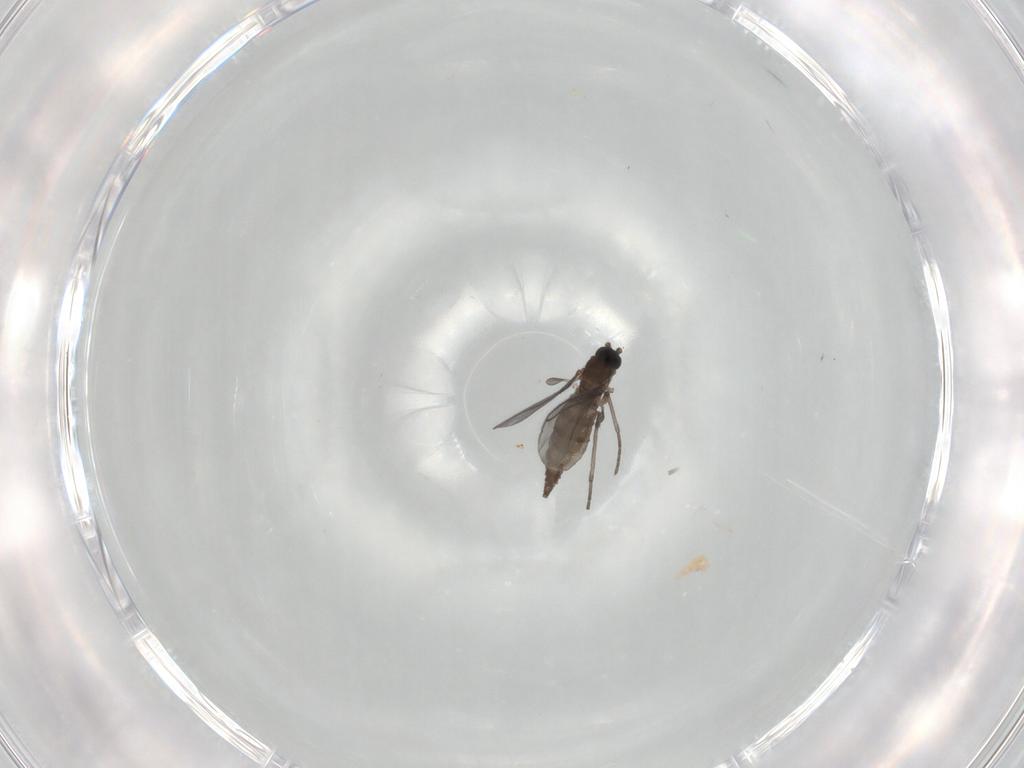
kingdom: Animalia
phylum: Arthropoda
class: Insecta
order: Diptera
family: Sciaridae
